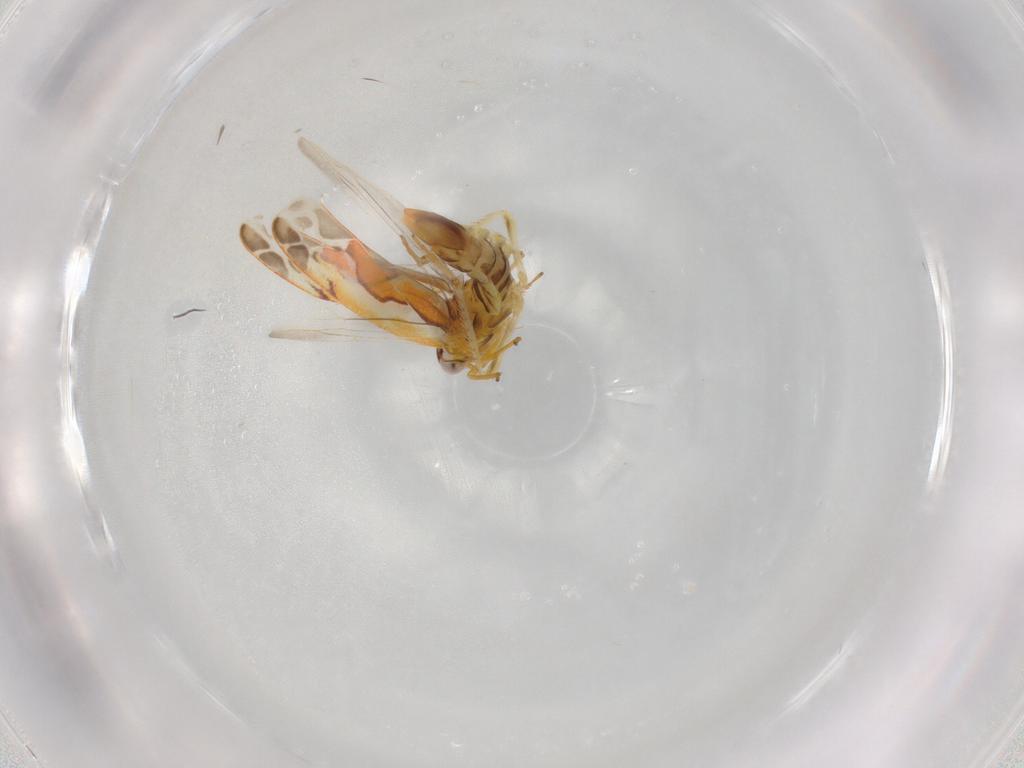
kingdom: Animalia
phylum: Arthropoda
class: Insecta
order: Hemiptera
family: Cicadellidae
